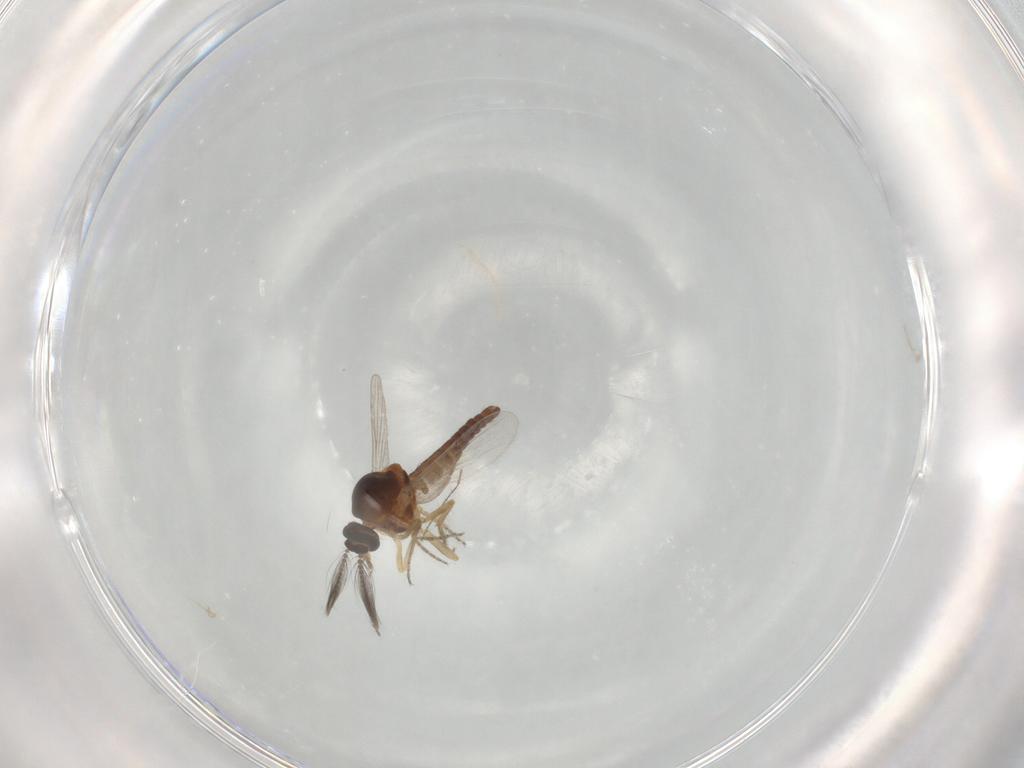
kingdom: Animalia
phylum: Arthropoda
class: Insecta
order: Diptera
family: Ceratopogonidae
